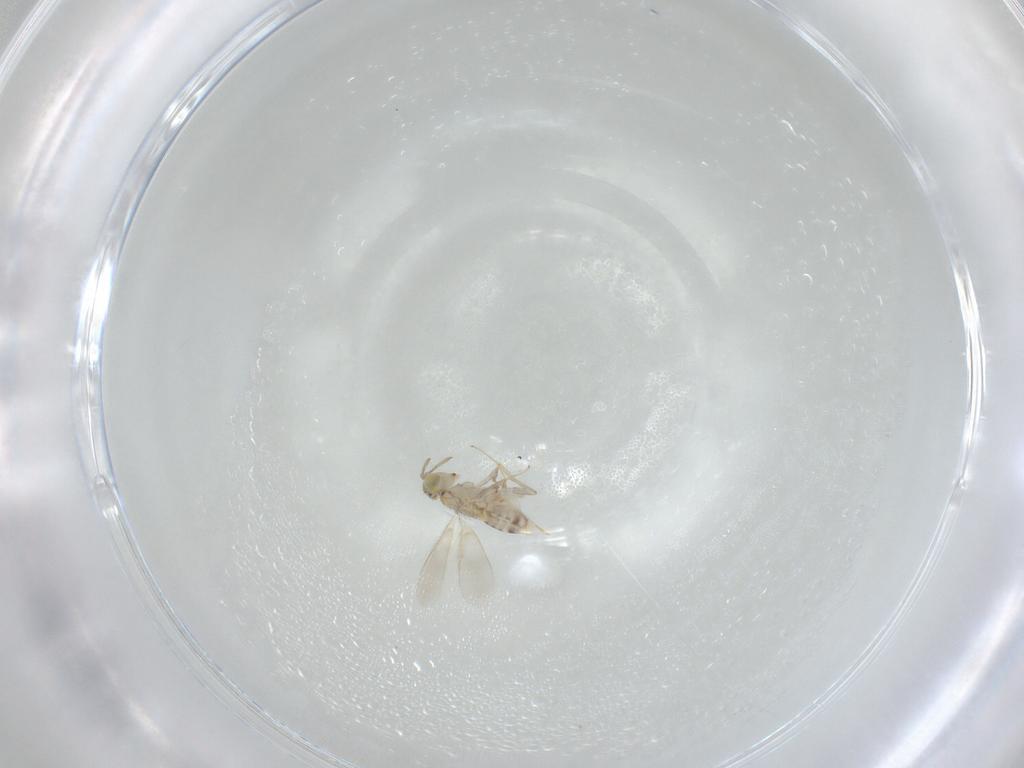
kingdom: Animalia
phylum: Arthropoda
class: Insecta
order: Hymenoptera
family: Aphelinidae
